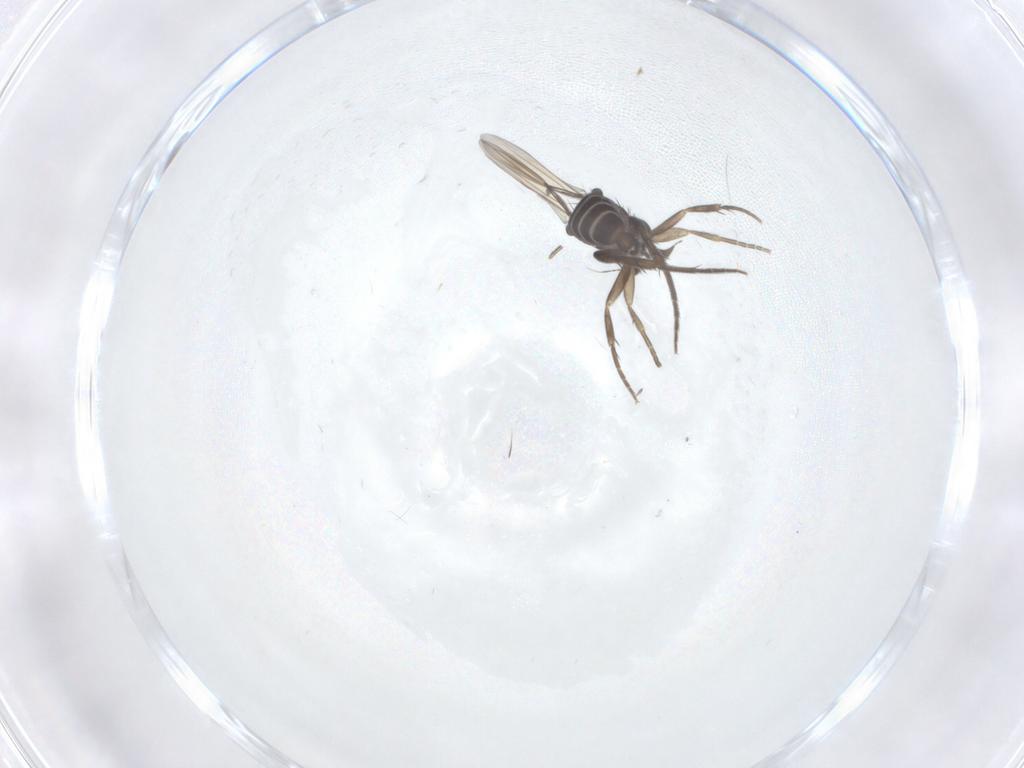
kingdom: Animalia
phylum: Arthropoda
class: Insecta
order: Diptera
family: Phoridae
